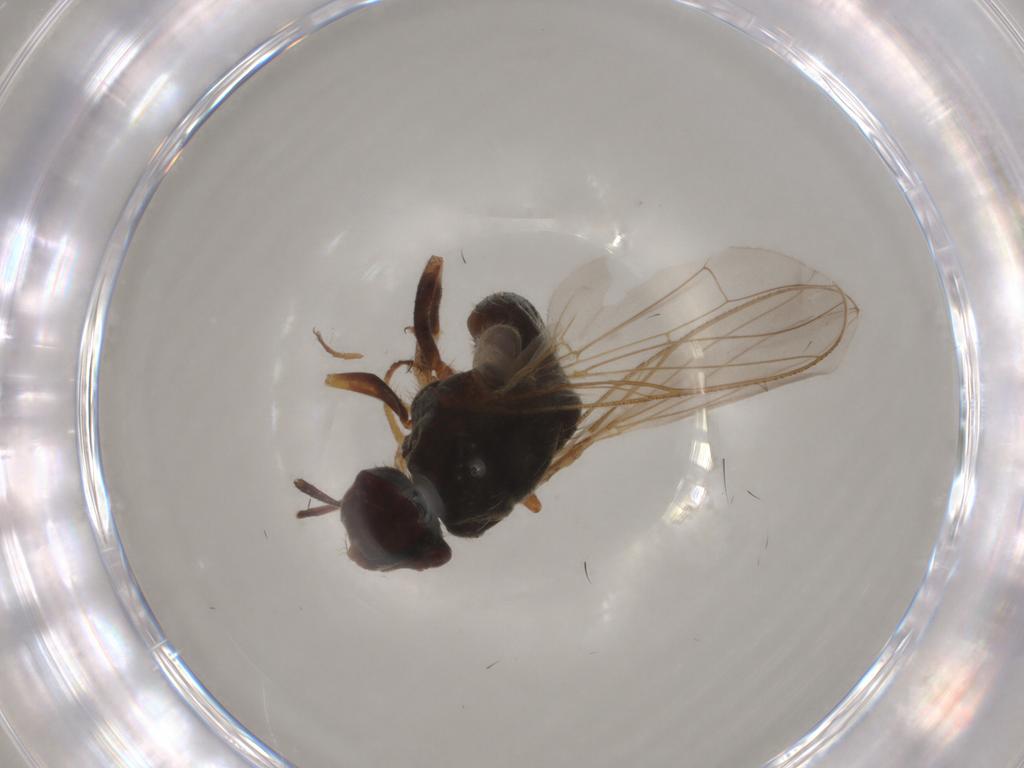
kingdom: Animalia
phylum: Arthropoda
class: Insecta
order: Diptera
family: Muscidae
